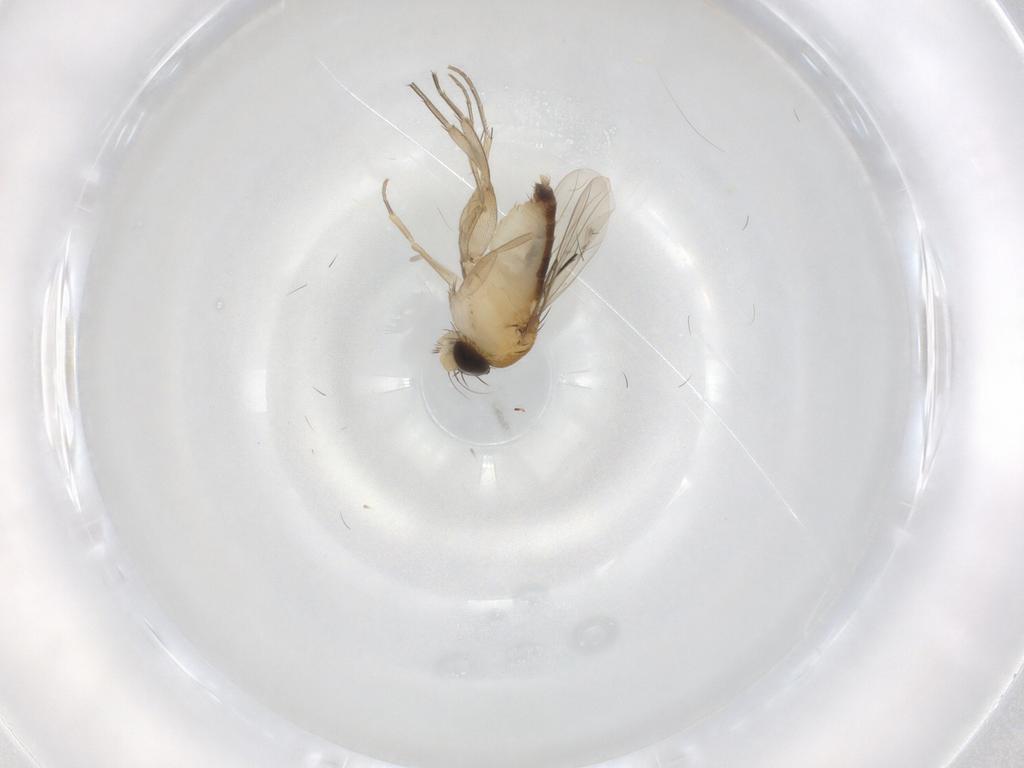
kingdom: Animalia
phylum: Arthropoda
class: Insecta
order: Diptera
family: Phoridae
